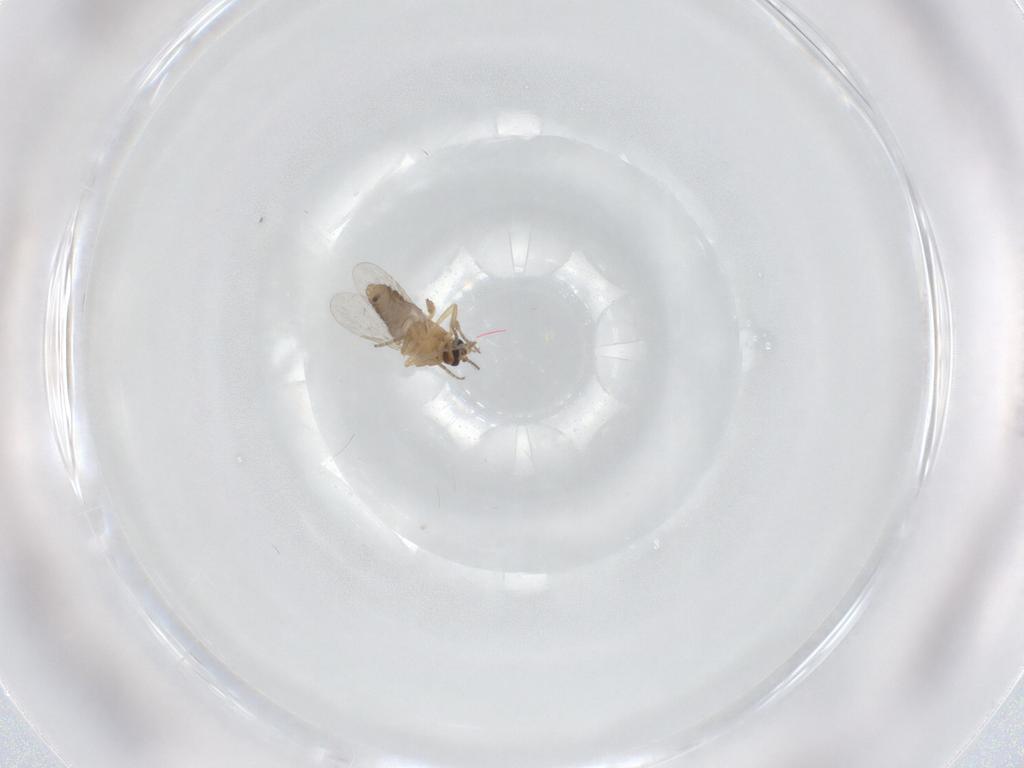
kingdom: Animalia
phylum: Arthropoda
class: Insecta
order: Diptera
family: Ceratopogonidae
